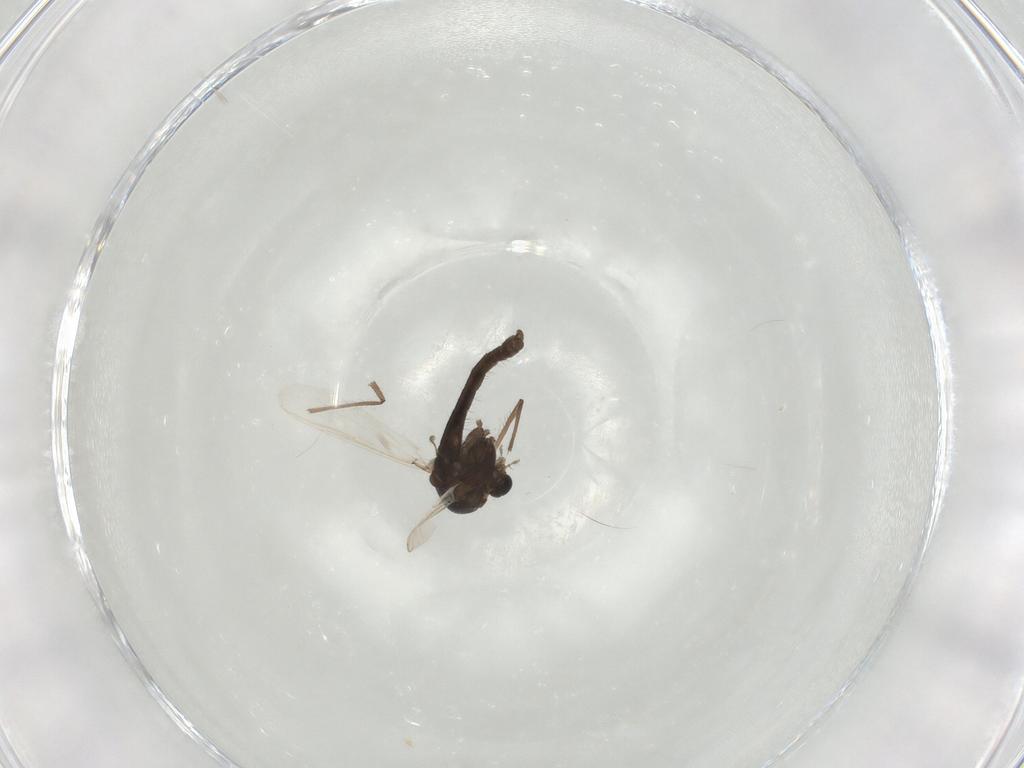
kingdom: Animalia
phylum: Arthropoda
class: Insecta
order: Diptera
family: Chironomidae
